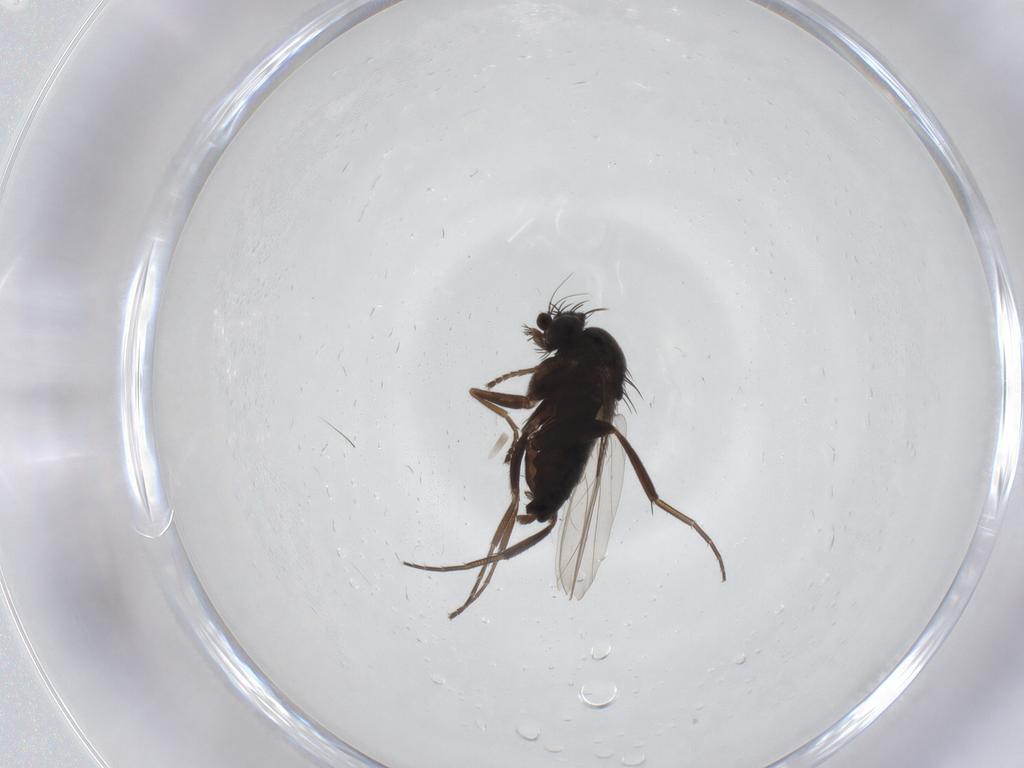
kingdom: Animalia
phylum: Arthropoda
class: Insecta
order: Diptera
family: Phoridae
